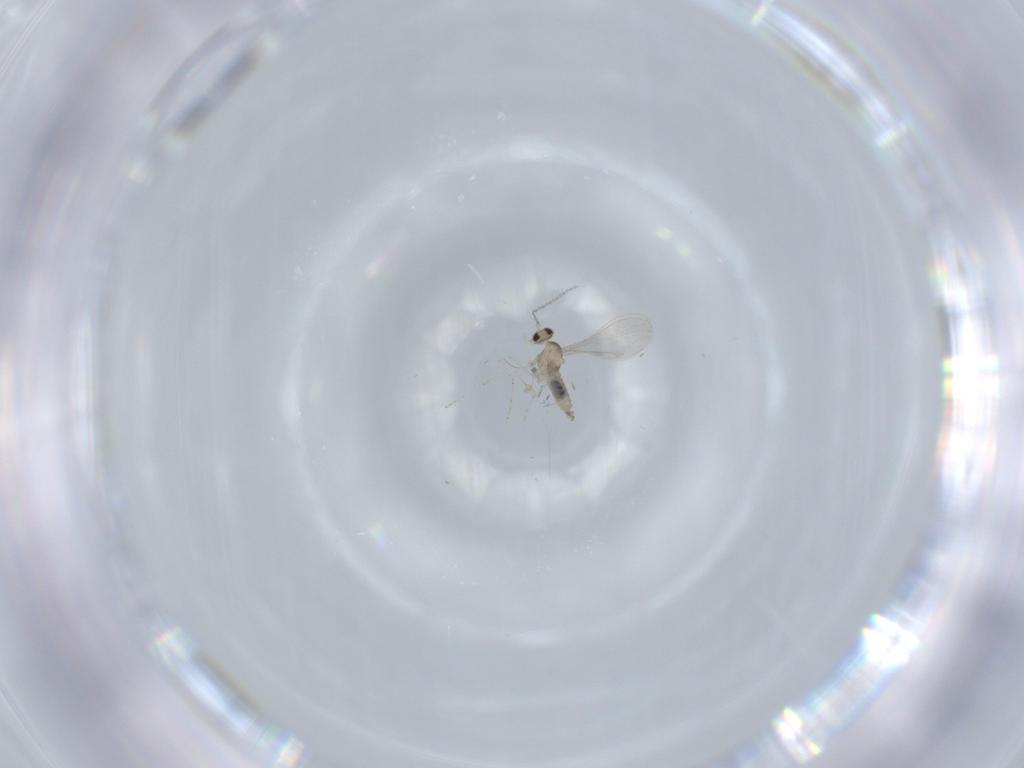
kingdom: Animalia
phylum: Arthropoda
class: Insecta
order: Diptera
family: Cecidomyiidae
